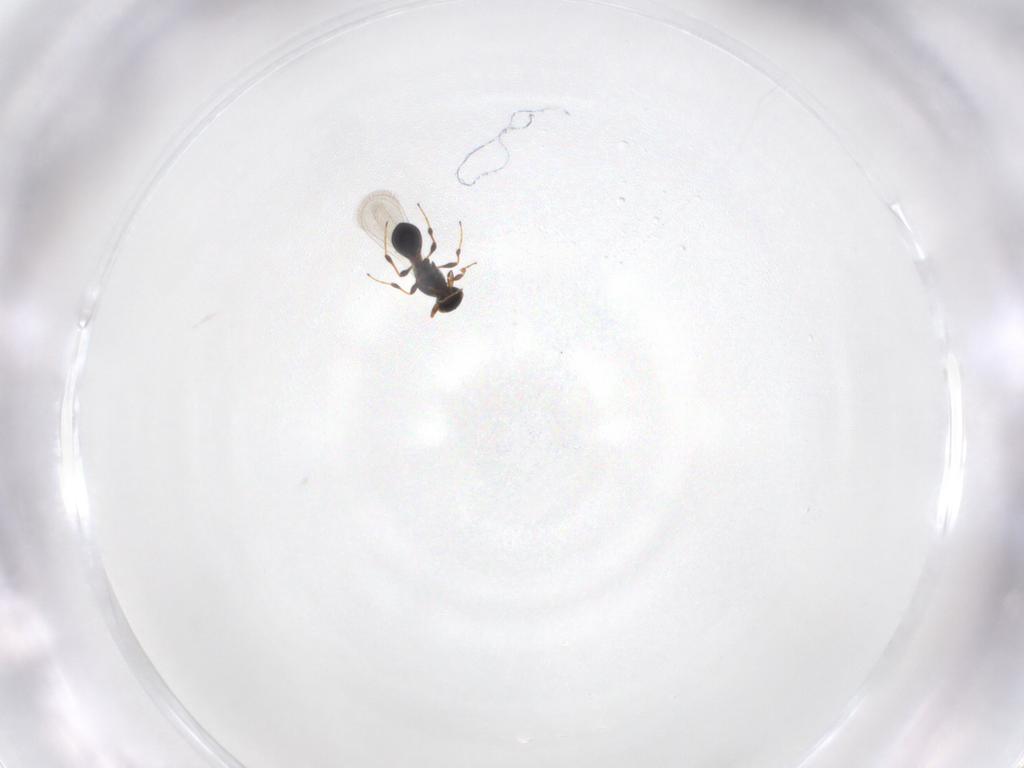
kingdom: Animalia
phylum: Arthropoda
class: Insecta
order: Hymenoptera
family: Platygastridae
